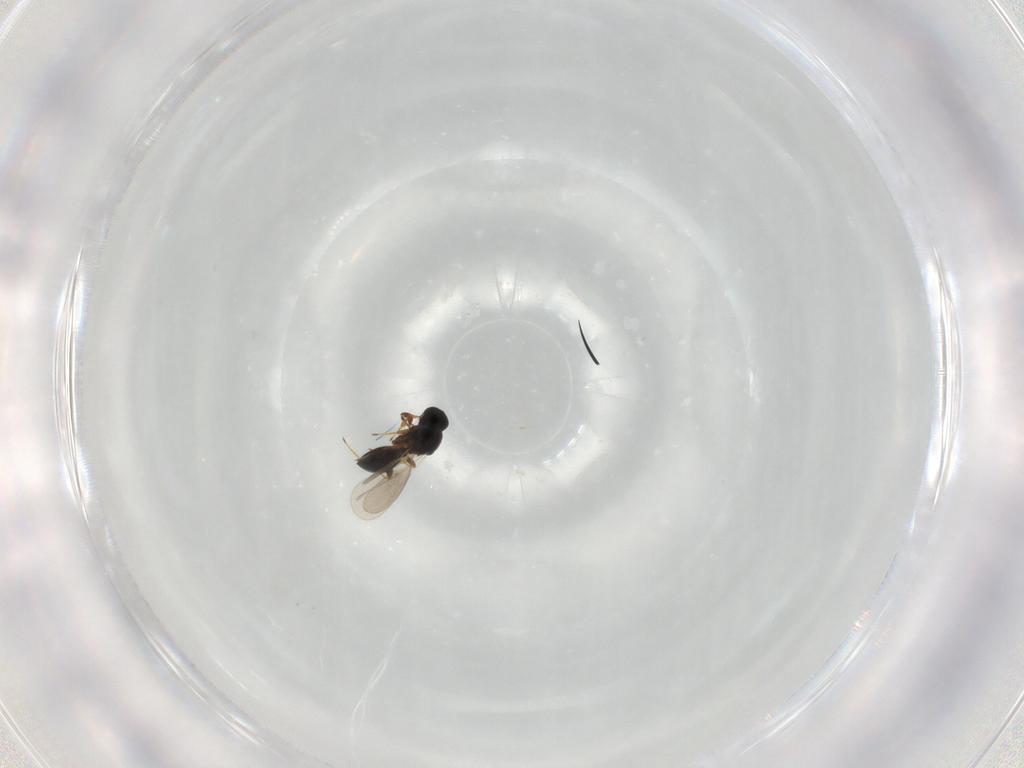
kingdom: Animalia
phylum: Arthropoda
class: Insecta
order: Hymenoptera
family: Platygastridae
